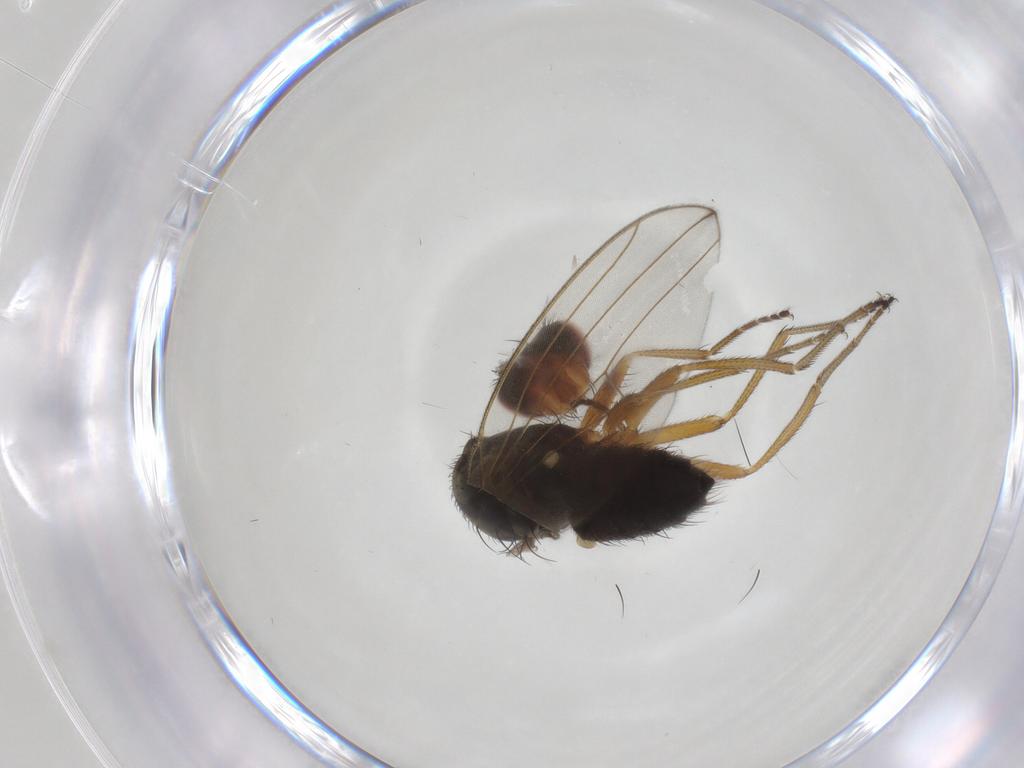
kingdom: Animalia
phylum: Arthropoda
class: Insecta
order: Diptera
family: Drosophilidae
